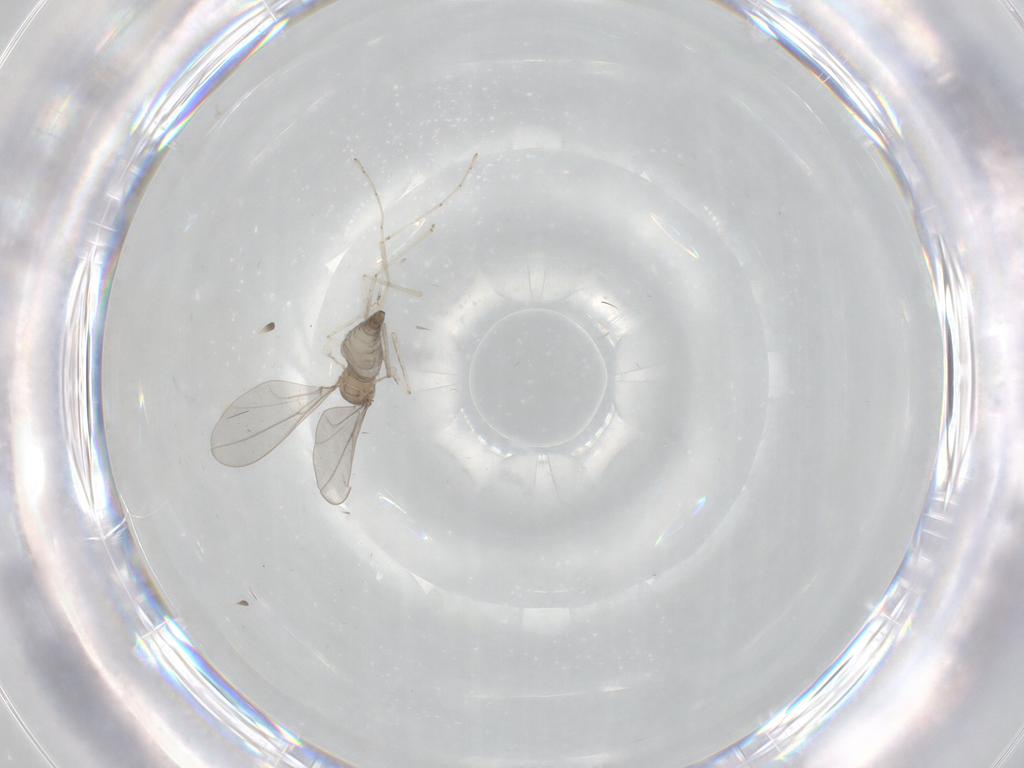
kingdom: Animalia
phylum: Arthropoda
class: Insecta
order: Diptera
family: Cecidomyiidae
